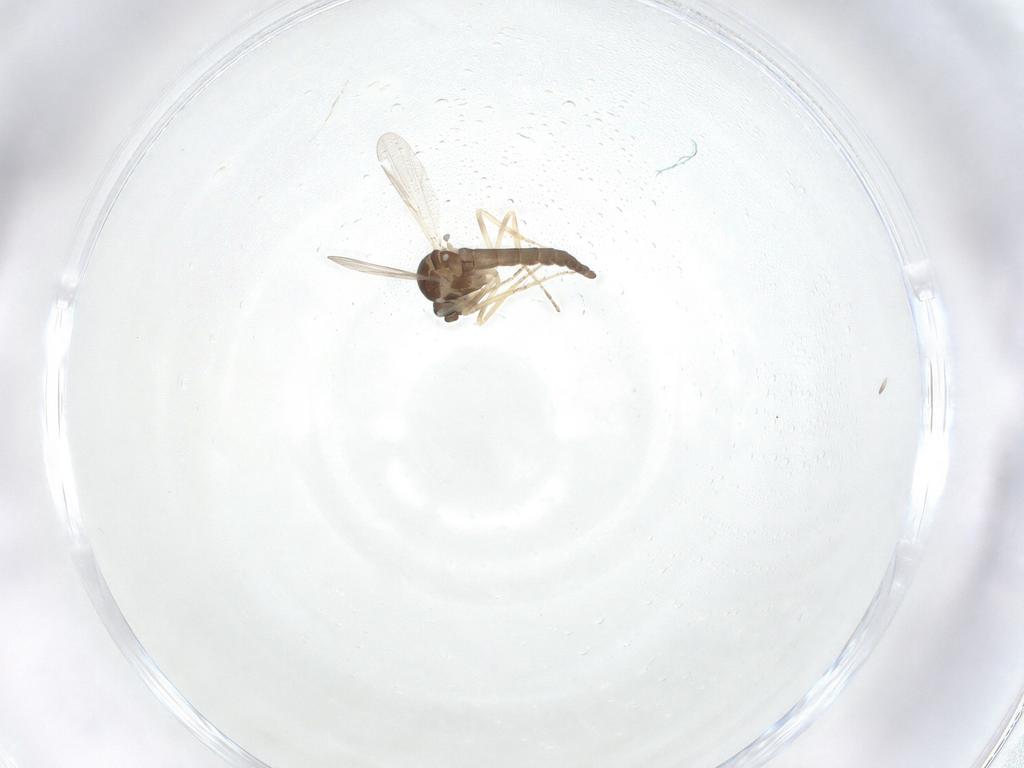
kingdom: Animalia
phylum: Arthropoda
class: Insecta
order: Diptera
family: Ceratopogonidae
